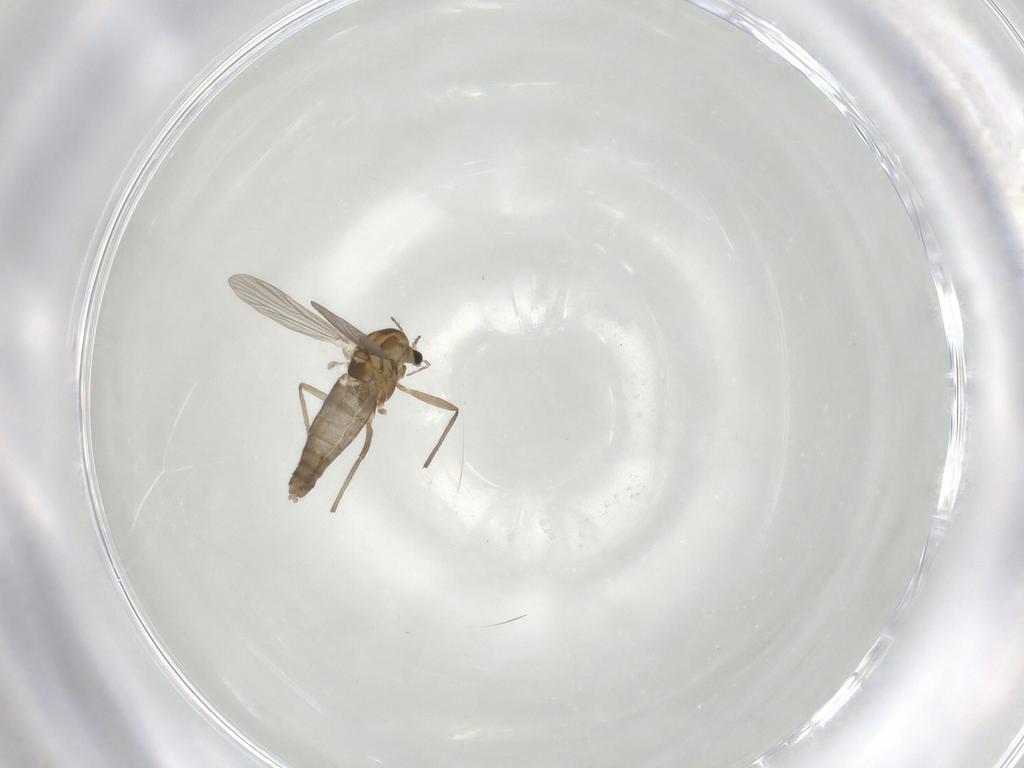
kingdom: Animalia
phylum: Arthropoda
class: Insecta
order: Diptera
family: Chironomidae
